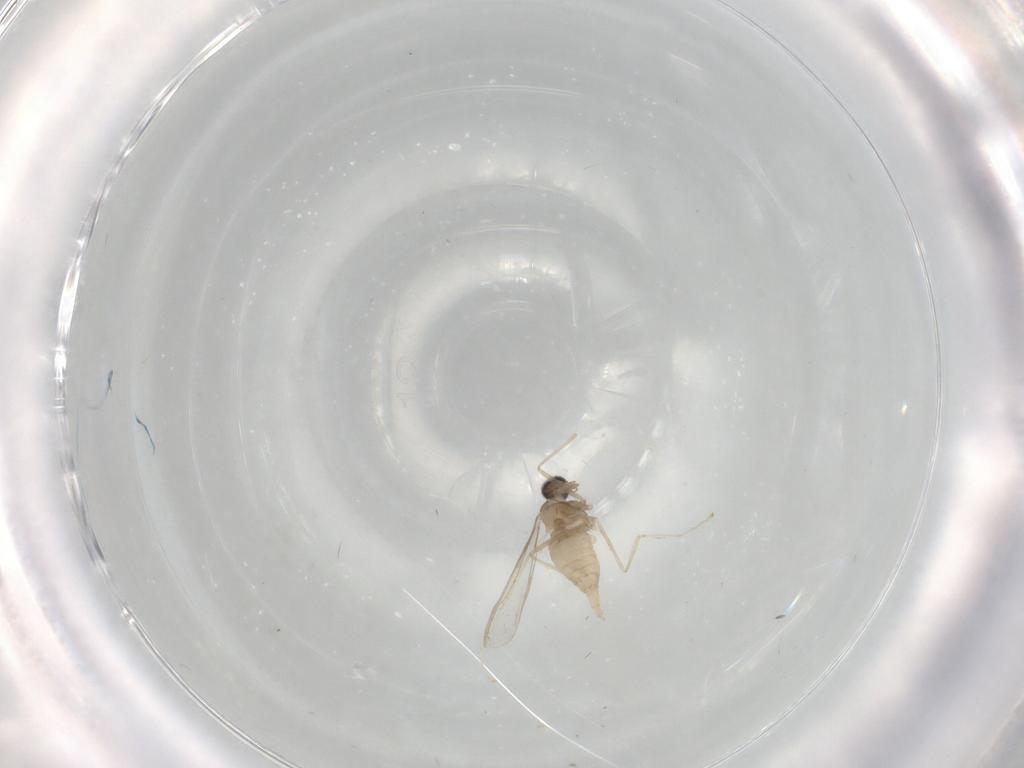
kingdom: Animalia
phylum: Arthropoda
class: Insecta
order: Diptera
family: Cecidomyiidae
